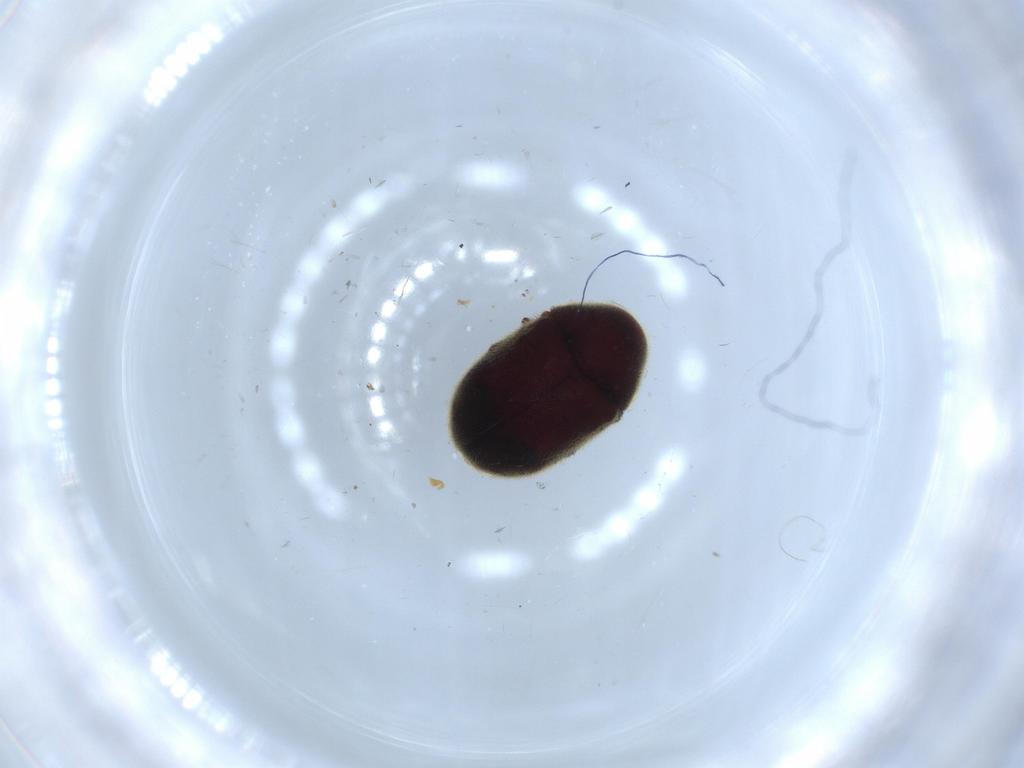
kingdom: Animalia
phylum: Arthropoda
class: Insecta
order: Coleoptera
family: Ptinidae
